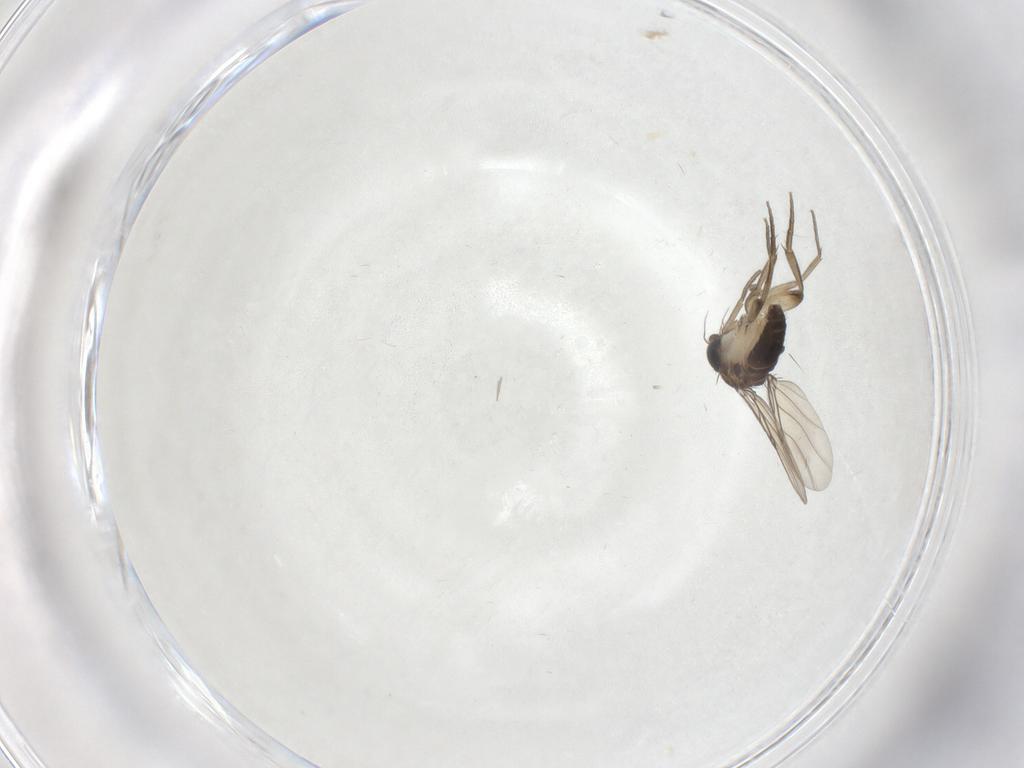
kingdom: Animalia
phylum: Arthropoda
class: Insecta
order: Diptera
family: Phoridae
